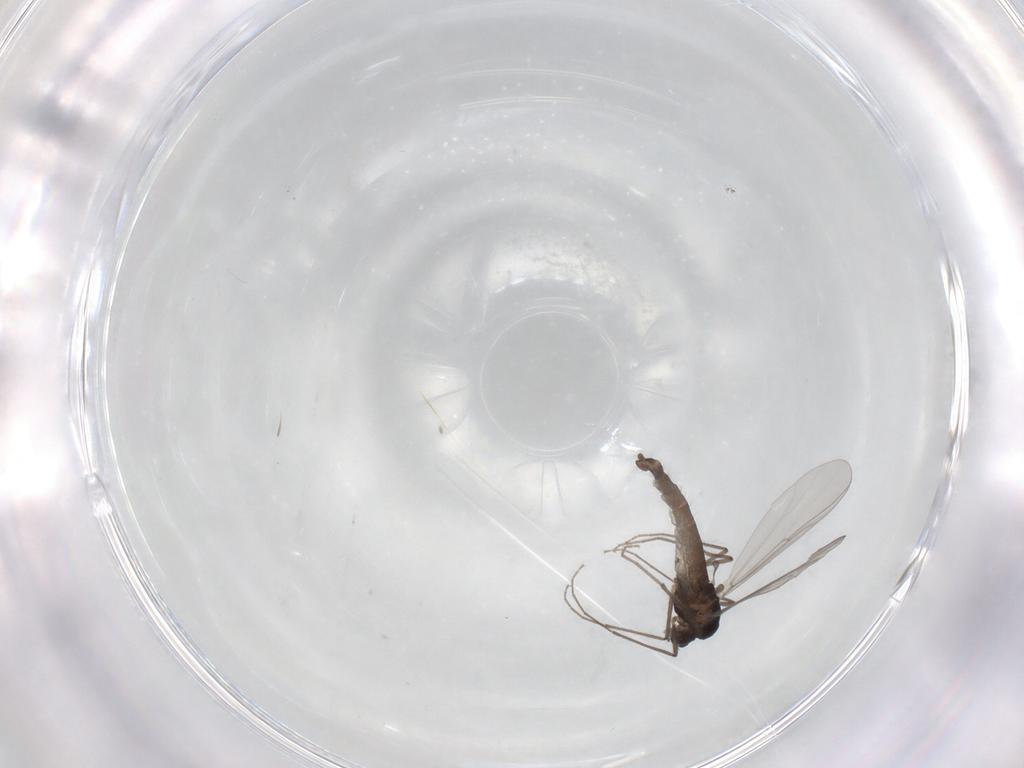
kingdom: Animalia
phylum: Arthropoda
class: Insecta
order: Diptera
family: Chironomidae
